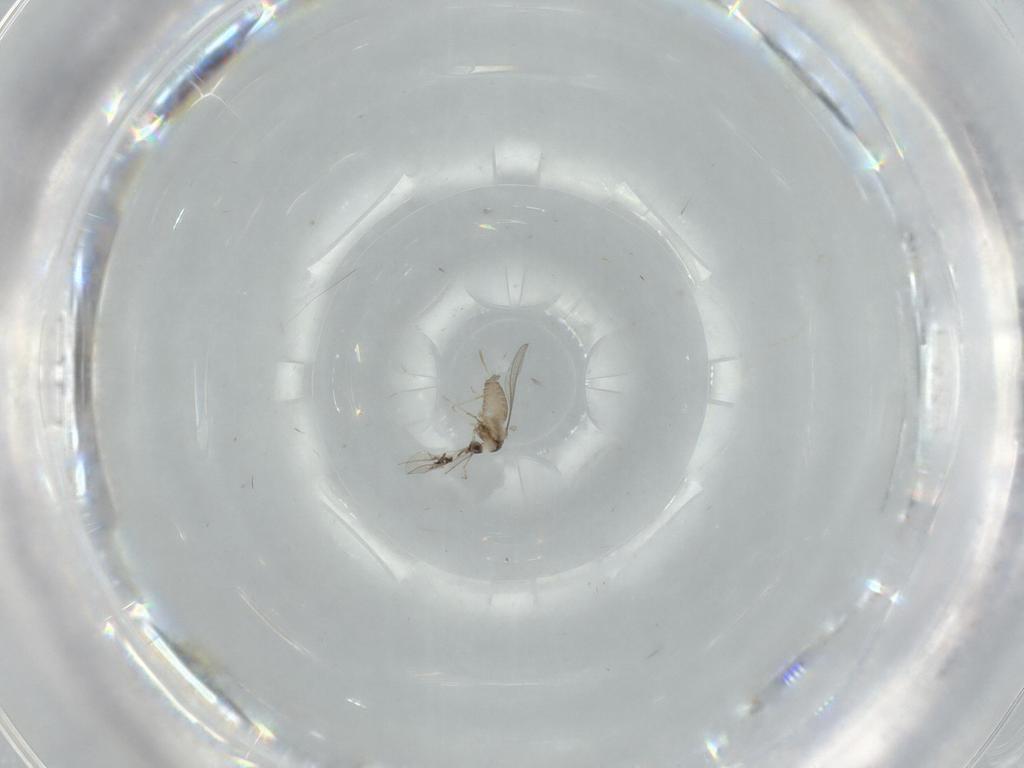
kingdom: Animalia
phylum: Arthropoda
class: Insecta
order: Diptera
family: Cecidomyiidae
